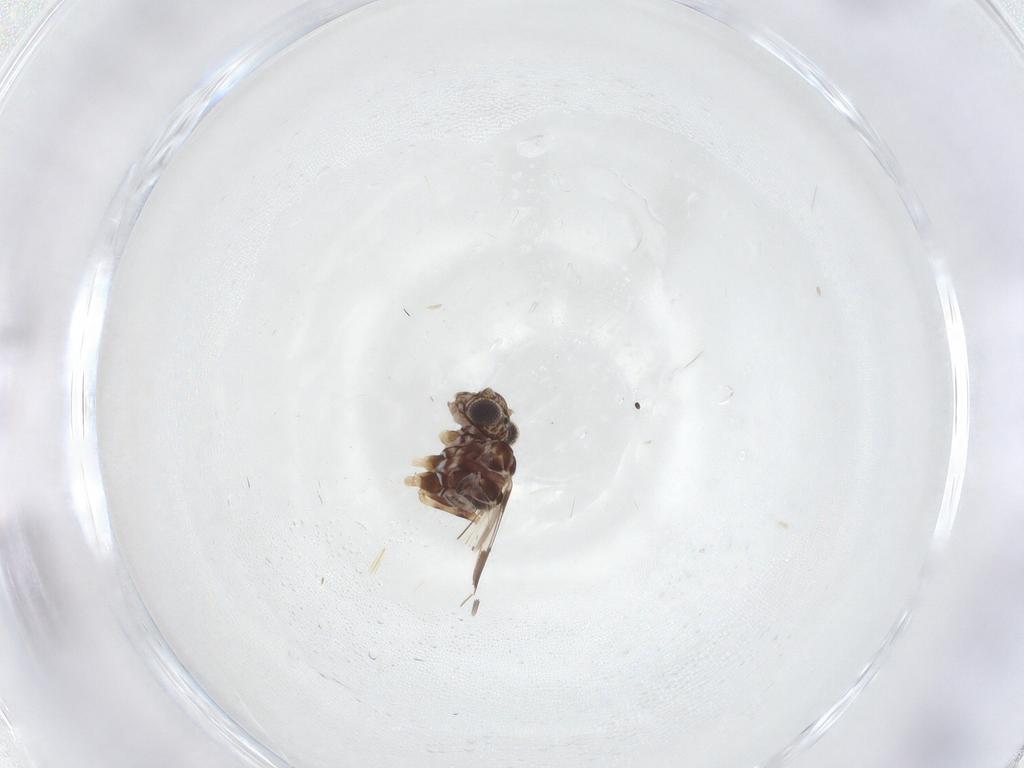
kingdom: Animalia
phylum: Arthropoda
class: Insecta
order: Psocodea
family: Myopsocidae
